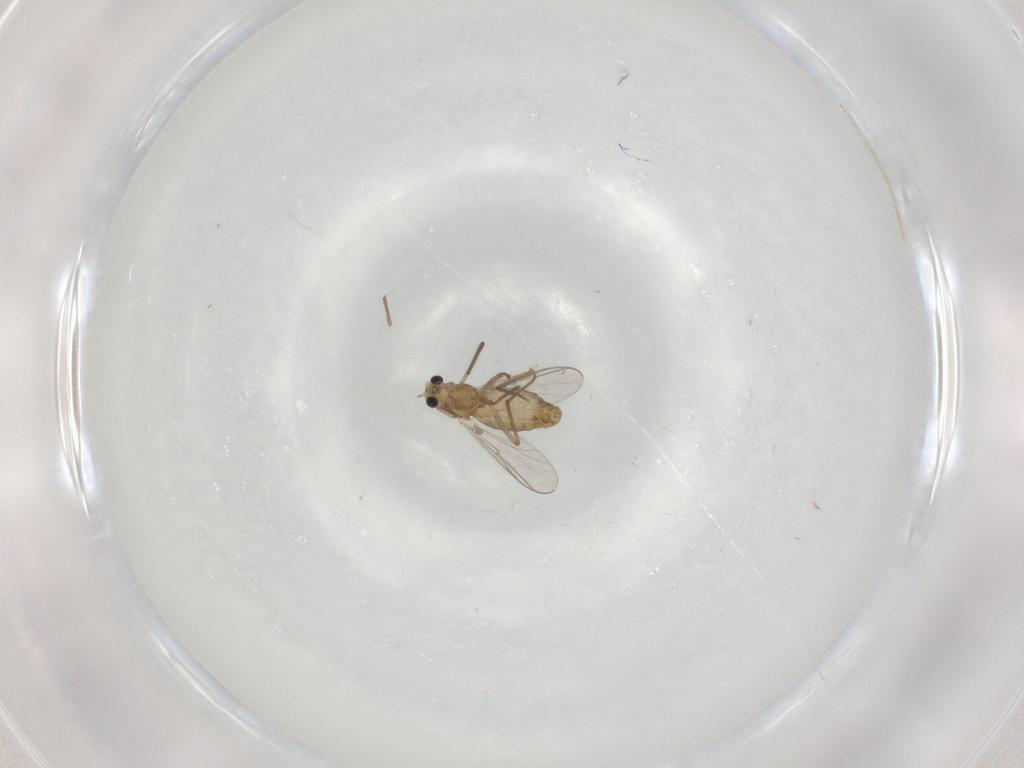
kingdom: Animalia
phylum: Arthropoda
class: Insecta
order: Diptera
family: Chironomidae
